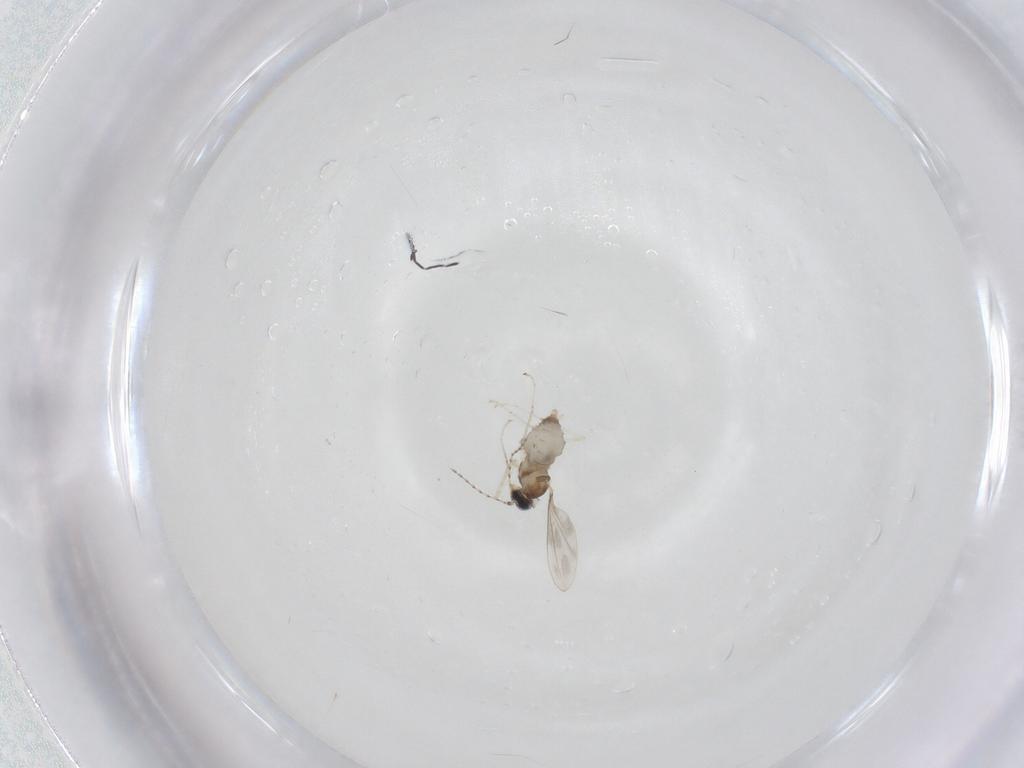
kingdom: Animalia
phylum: Arthropoda
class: Insecta
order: Diptera
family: Cecidomyiidae
